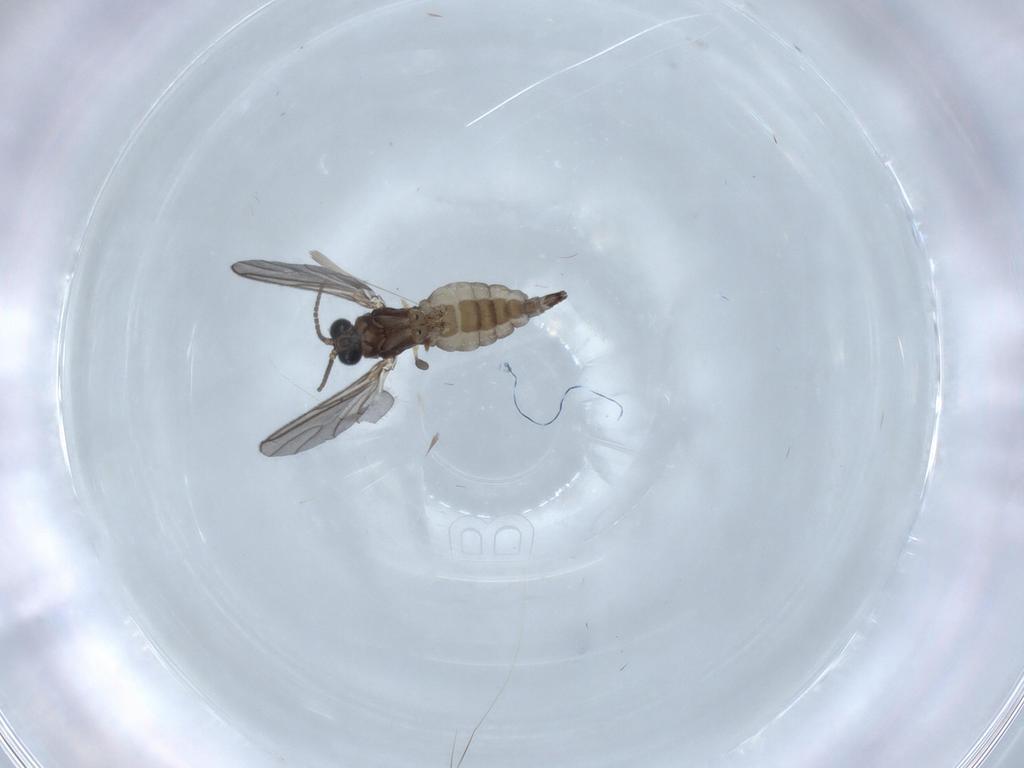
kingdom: Animalia
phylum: Arthropoda
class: Insecta
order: Diptera
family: Sciaridae
